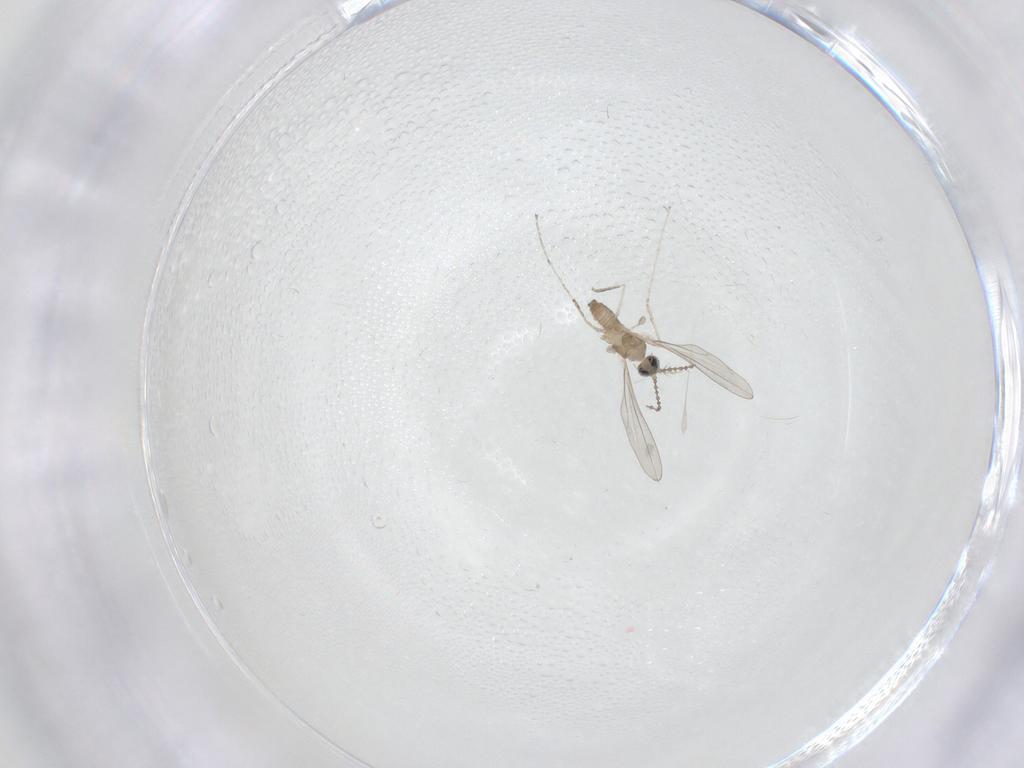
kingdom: Animalia
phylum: Arthropoda
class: Insecta
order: Diptera
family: Cecidomyiidae
